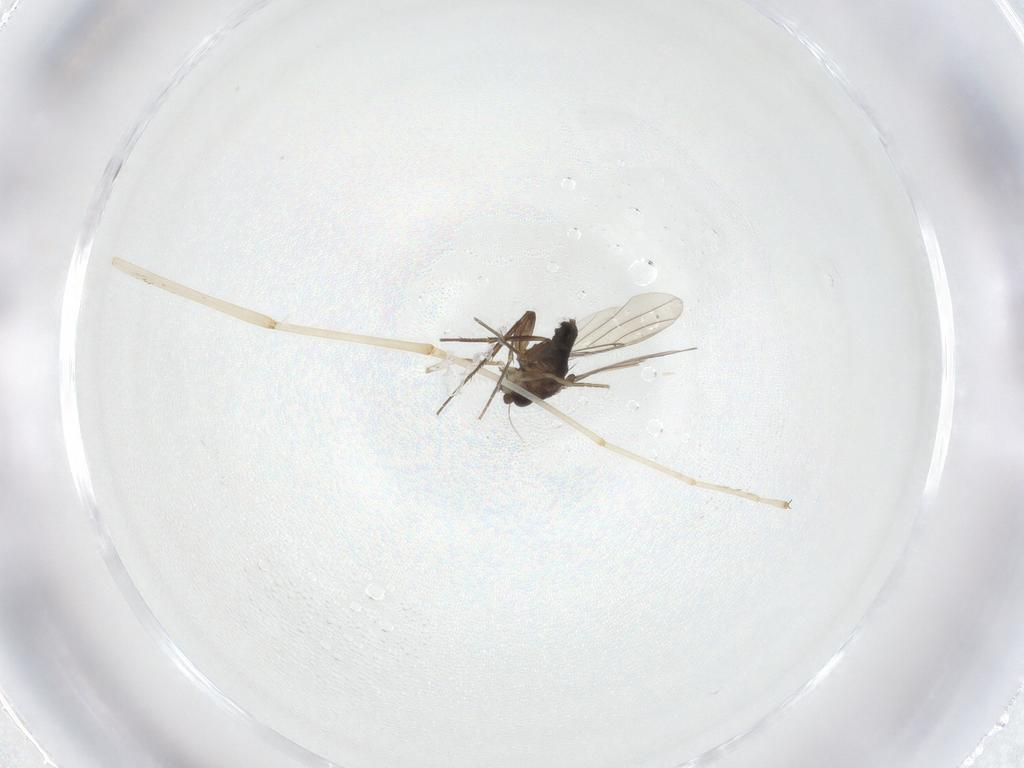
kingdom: Animalia
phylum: Arthropoda
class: Insecta
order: Diptera
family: Phoridae
